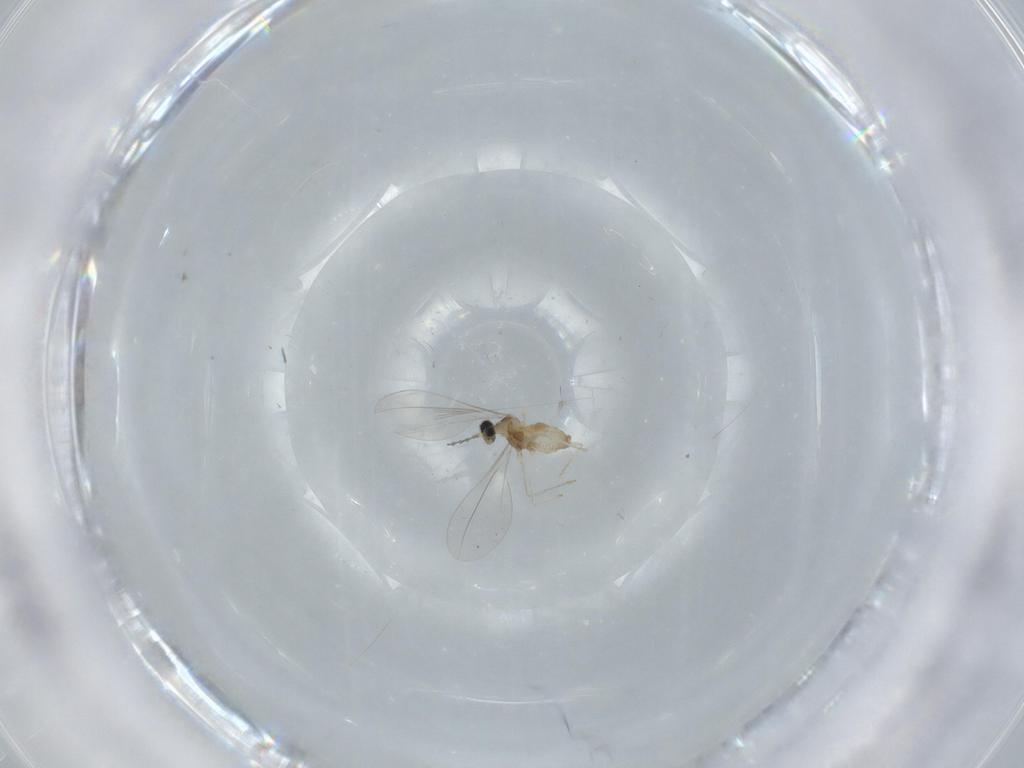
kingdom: Animalia
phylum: Arthropoda
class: Insecta
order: Diptera
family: Cecidomyiidae
